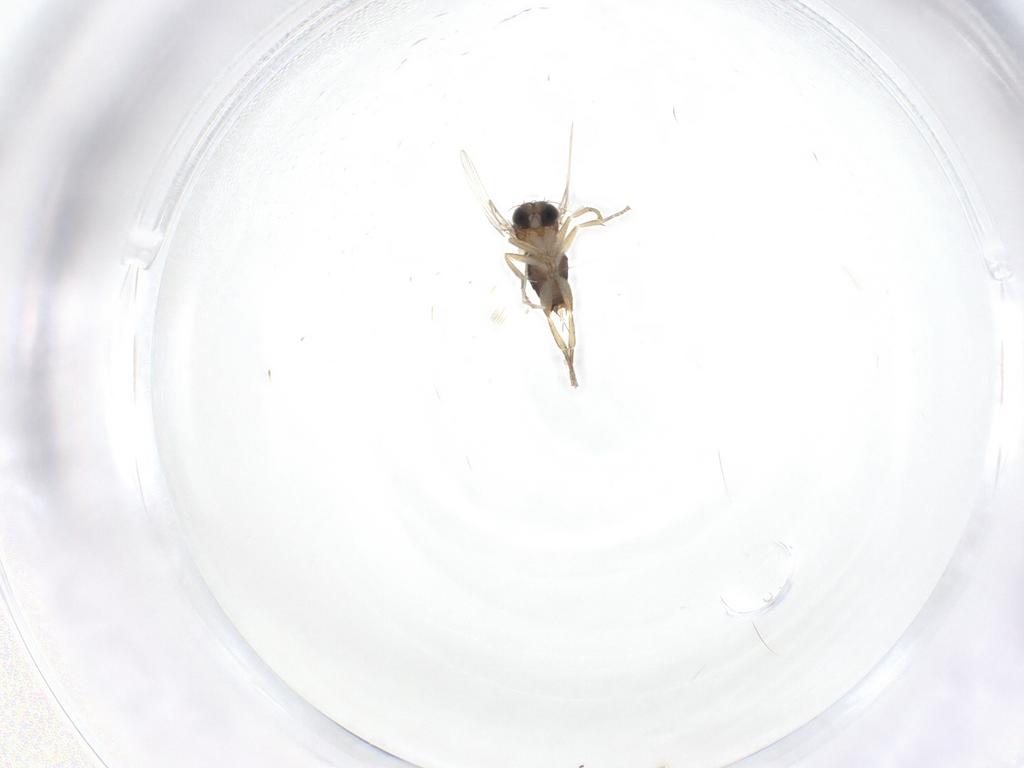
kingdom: Animalia
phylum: Arthropoda
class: Insecta
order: Diptera
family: Cecidomyiidae
